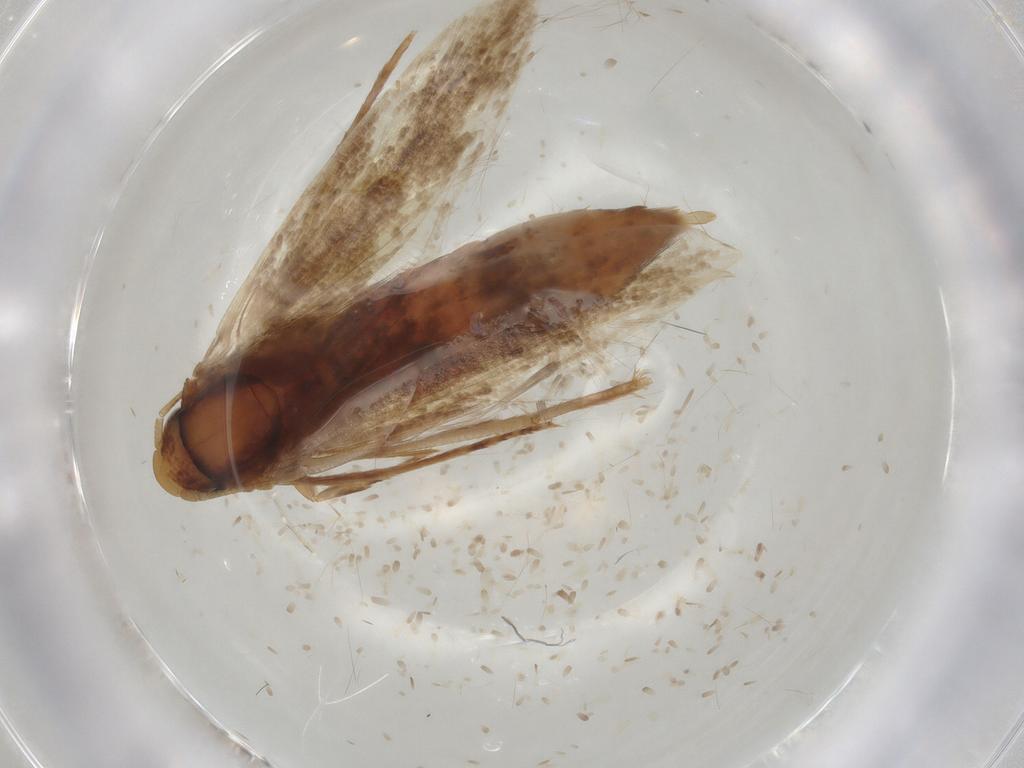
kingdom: Animalia
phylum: Arthropoda
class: Insecta
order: Lepidoptera
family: Tineidae
